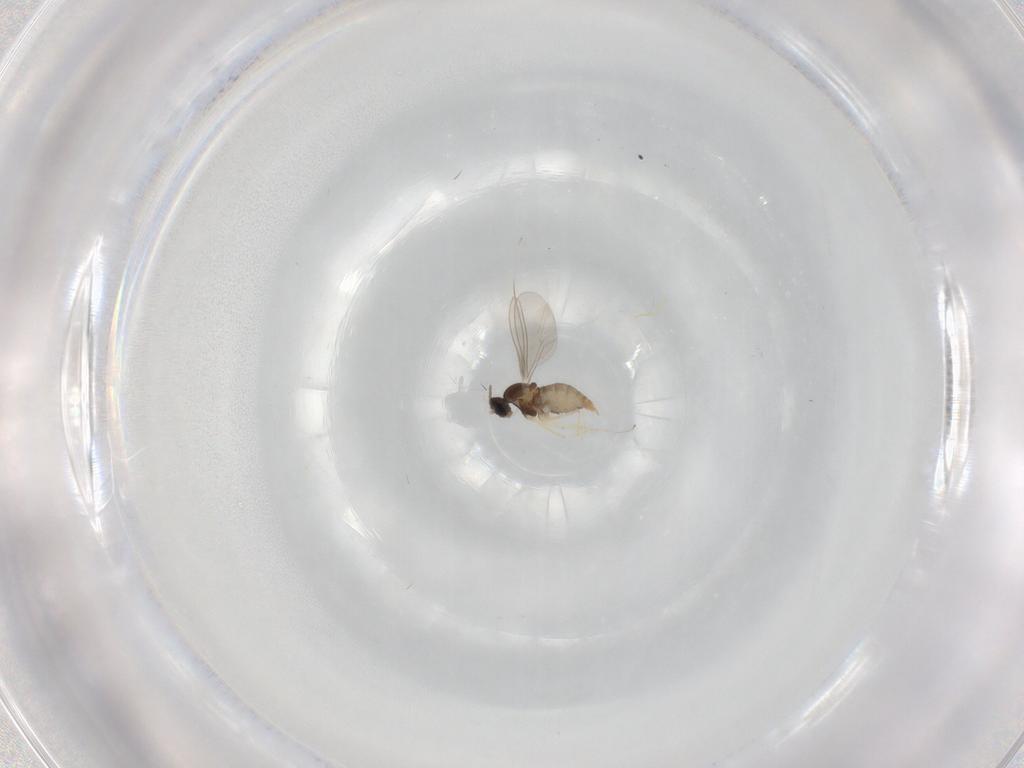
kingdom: Animalia
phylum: Arthropoda
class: Insecta
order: Diptera
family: Cecidomyiidae
